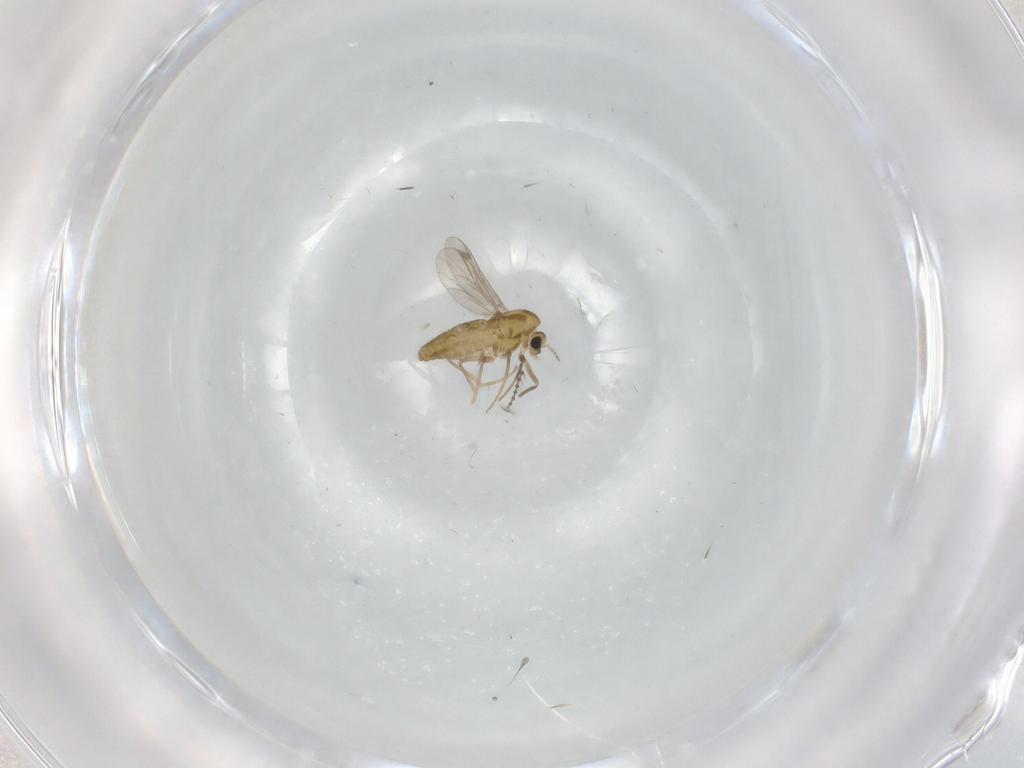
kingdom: Animalia
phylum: Arthropoda
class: Insecta
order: Diptera
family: Chironomidae
